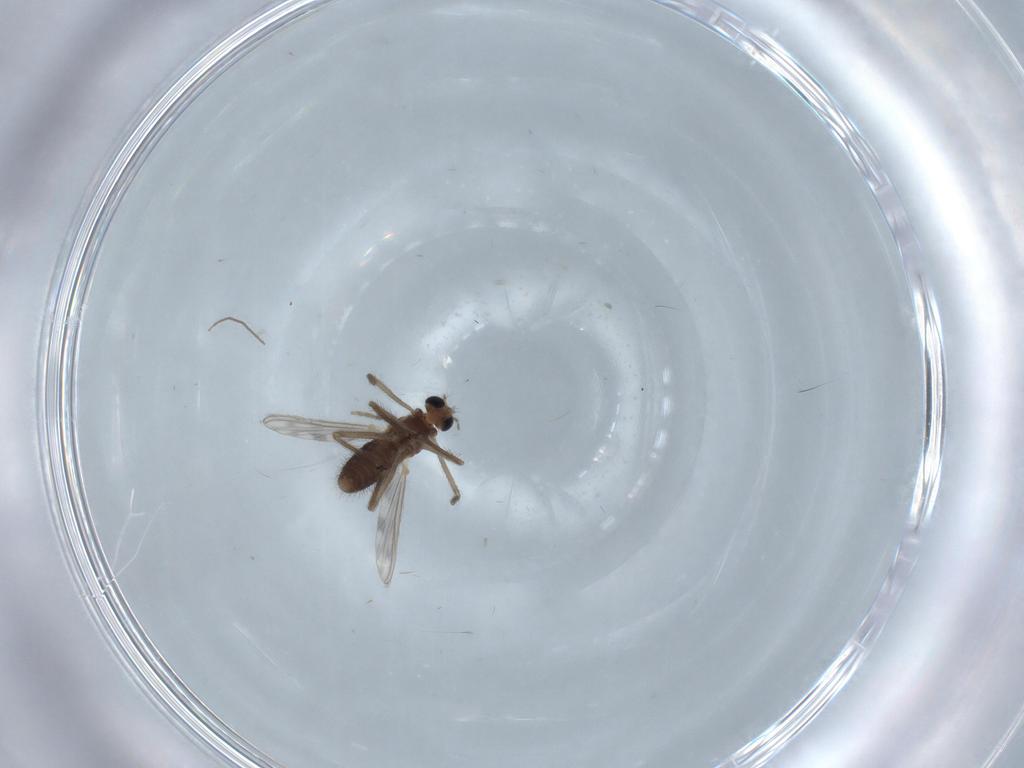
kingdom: Animalia
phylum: Arthropoda
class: Insecta
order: Diptera
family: Chironomidae
